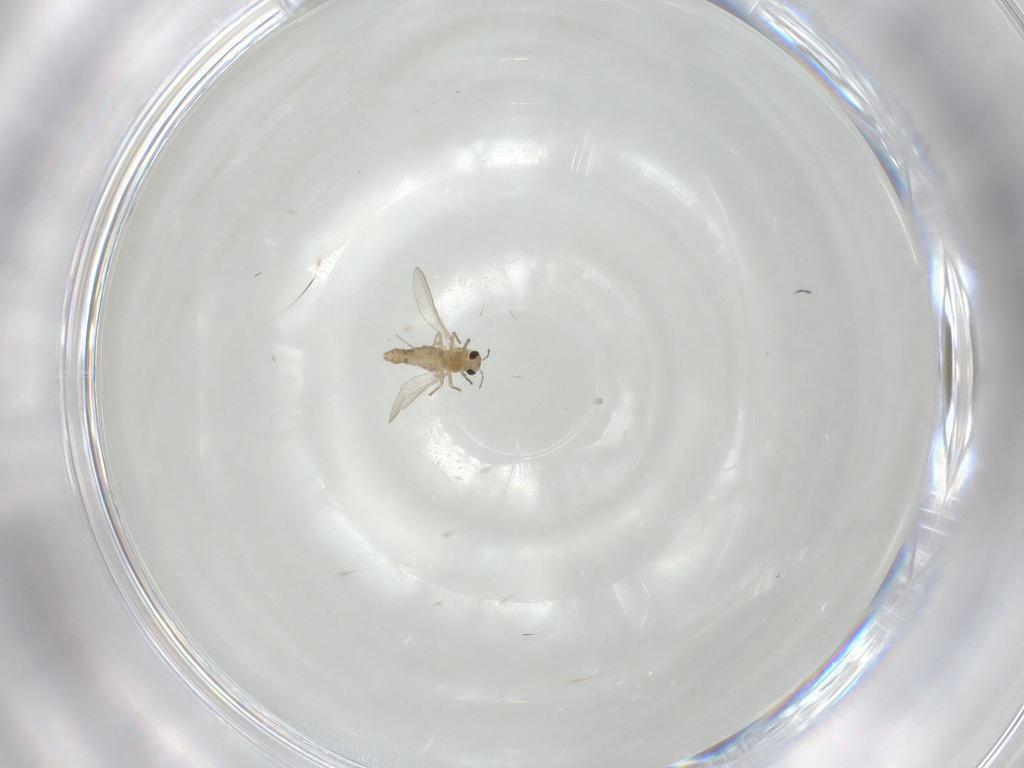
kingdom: Animalia
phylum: Arthropoda
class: Insecta
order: Diptera
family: Chironomidae
